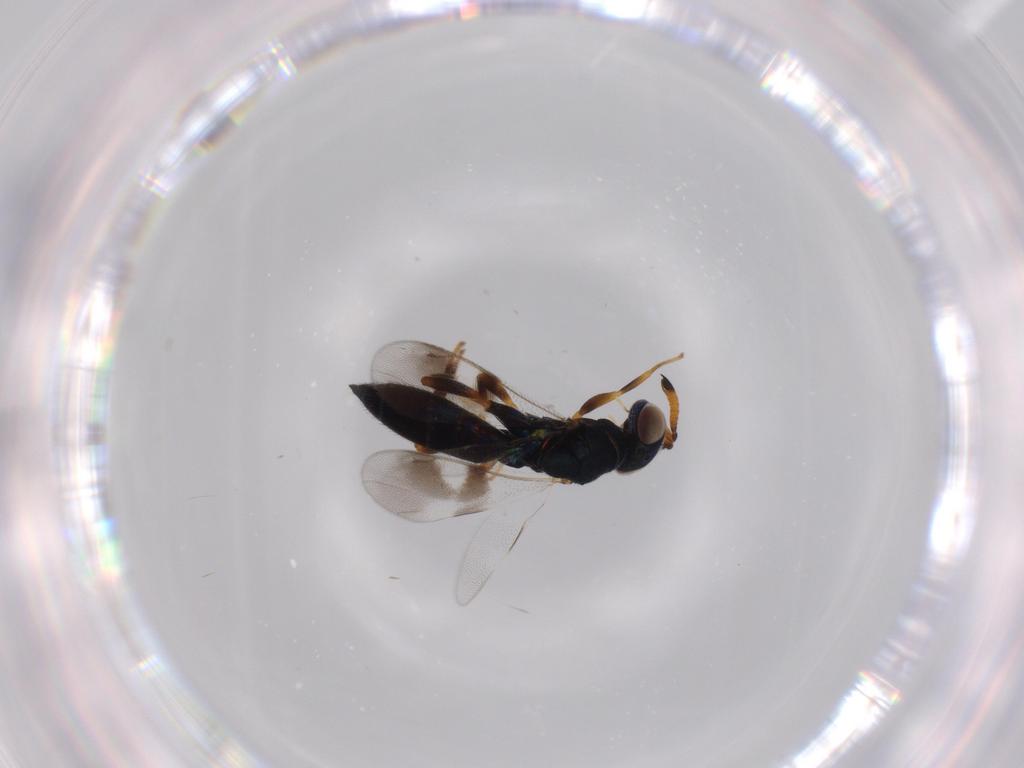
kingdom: Animalia
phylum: Arthropoda
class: Insecta
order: Hymenoptera
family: Cleonyminae
